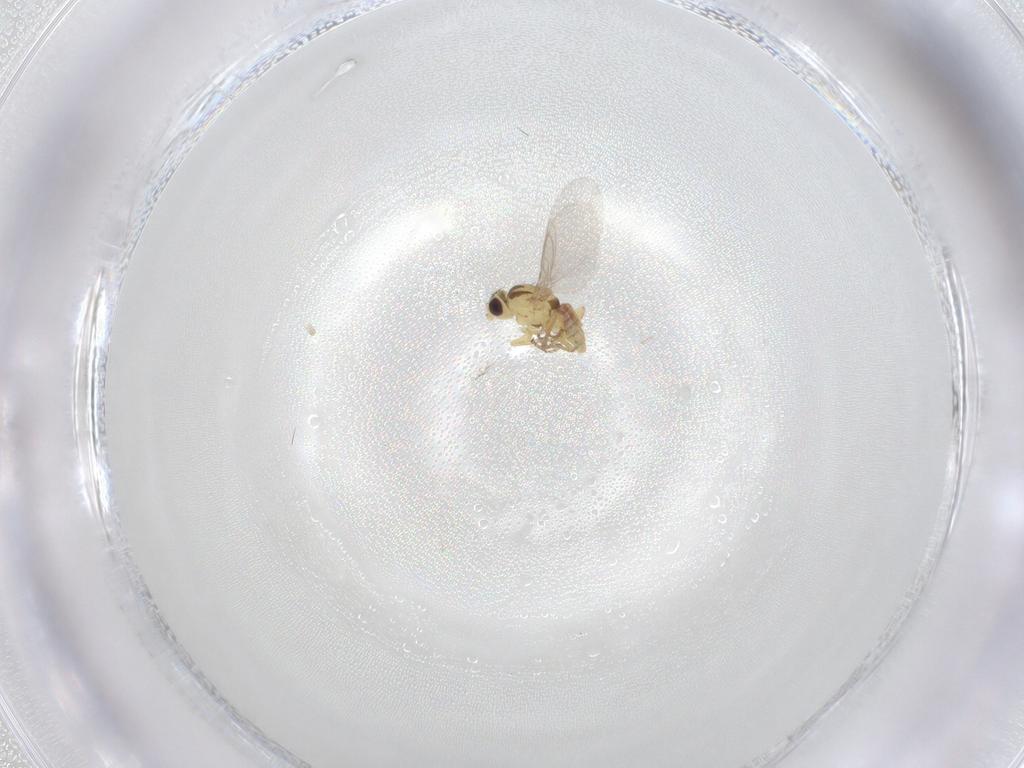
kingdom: Animalia
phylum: Arthropoda
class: Insecta
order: Diptera
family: Agromyzidae
